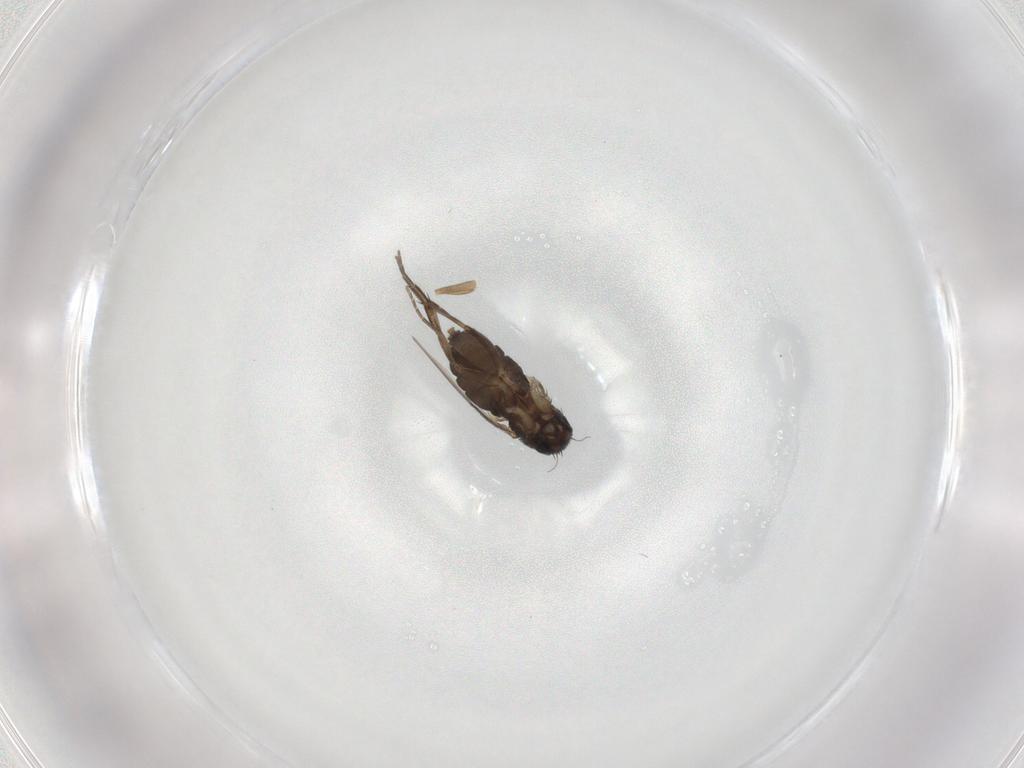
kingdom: Animalia
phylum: Arthropoda
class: Insecta
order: Diptera
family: Phoridae
